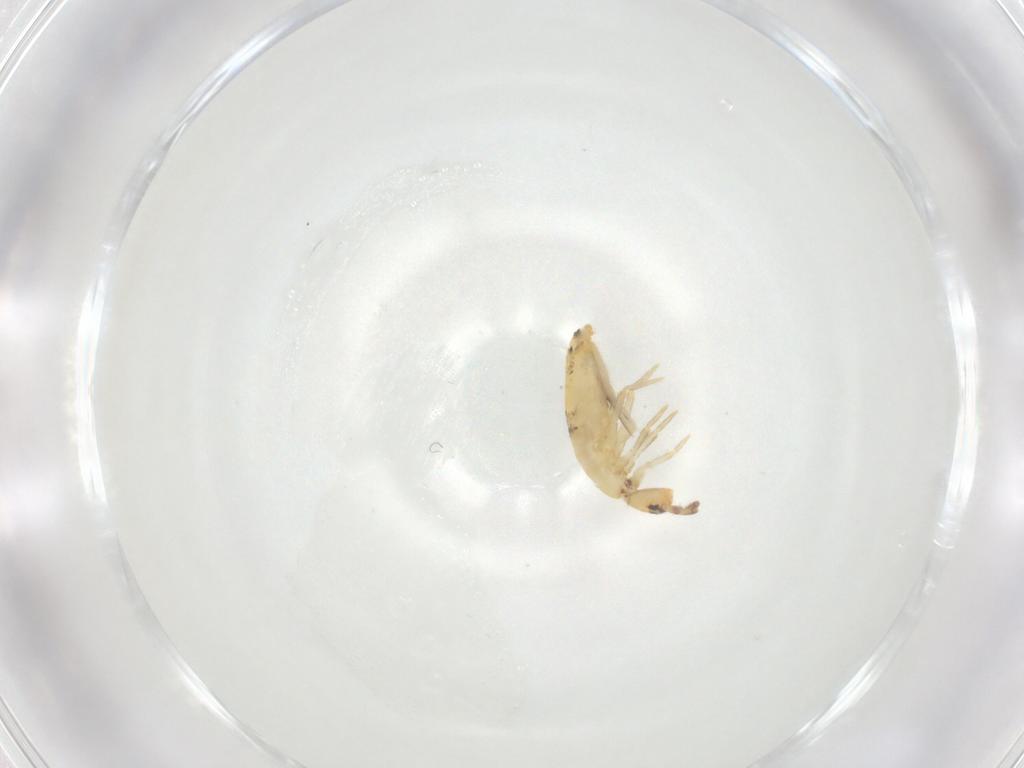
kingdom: Animalia
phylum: Arthropoda
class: Collembola
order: Entomobryomorpha
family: Entomobryidae
